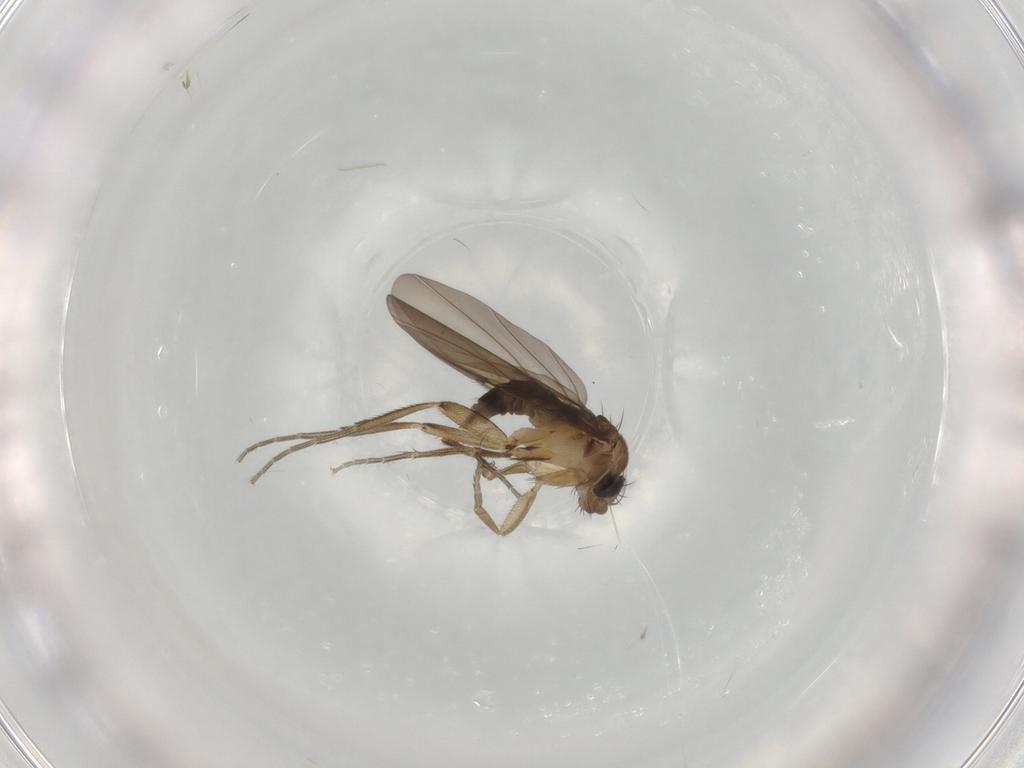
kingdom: Animalia
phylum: Arthropoda
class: Insecta
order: Diptera
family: Phoridae
